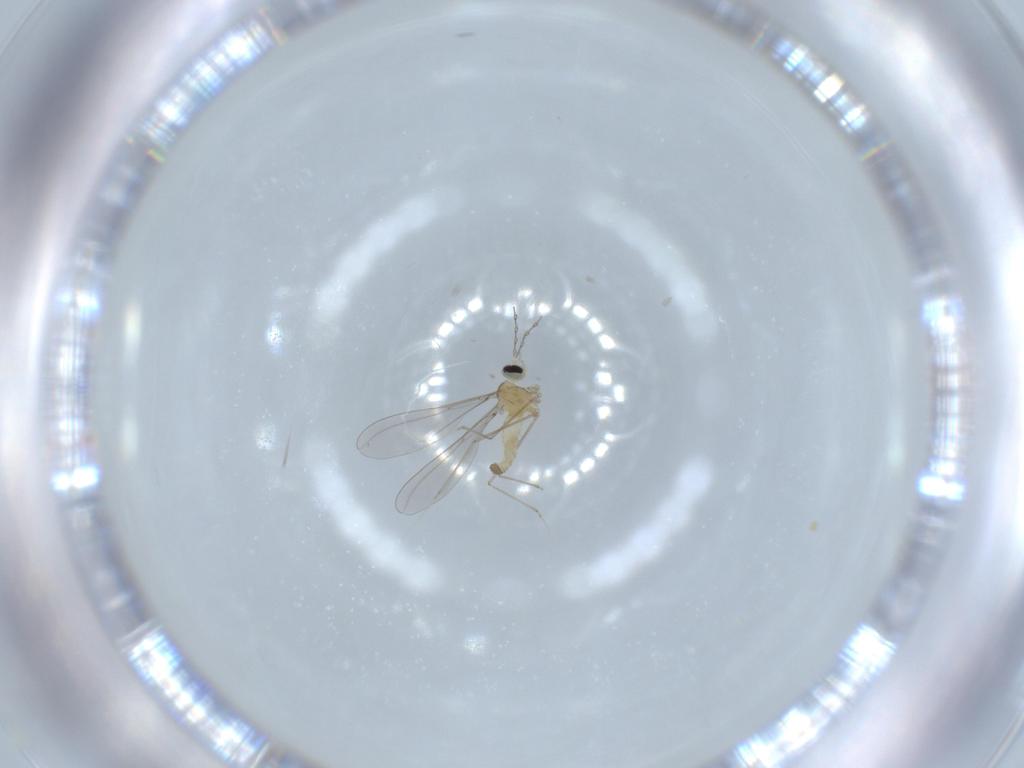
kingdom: Animalia
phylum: Arthropoda
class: Insecta
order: Diptera
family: Cecidomyiidae
